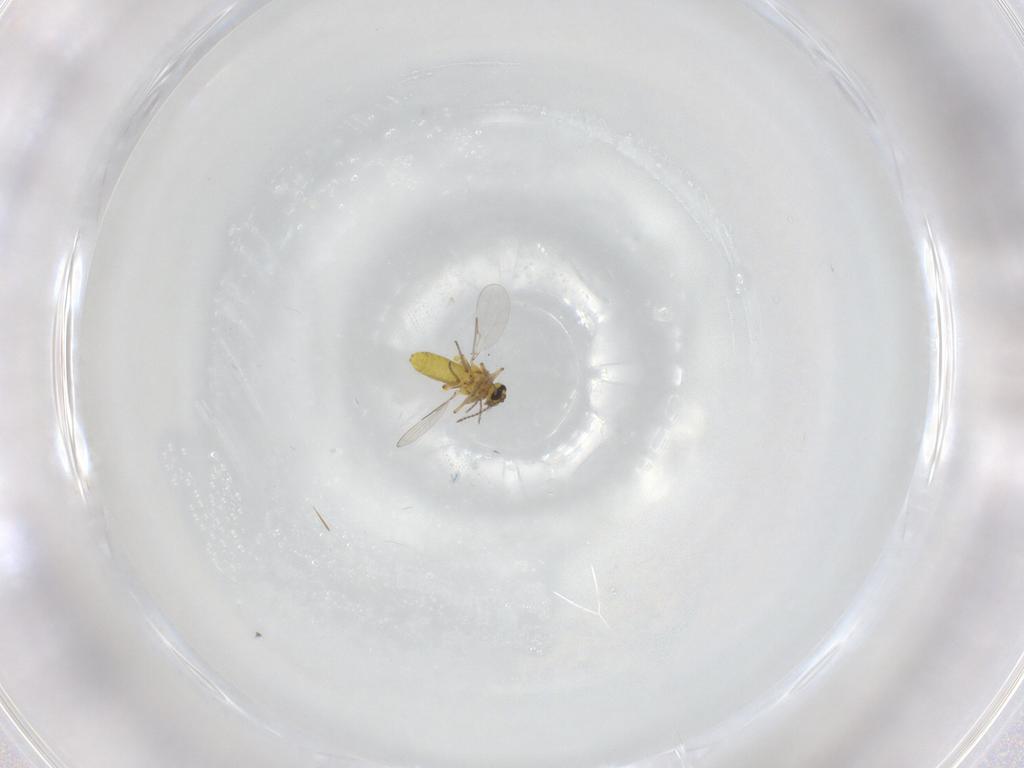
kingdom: Animalia
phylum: Arthropoda
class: Insecta
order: Diptera
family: Ceratopogonidae
